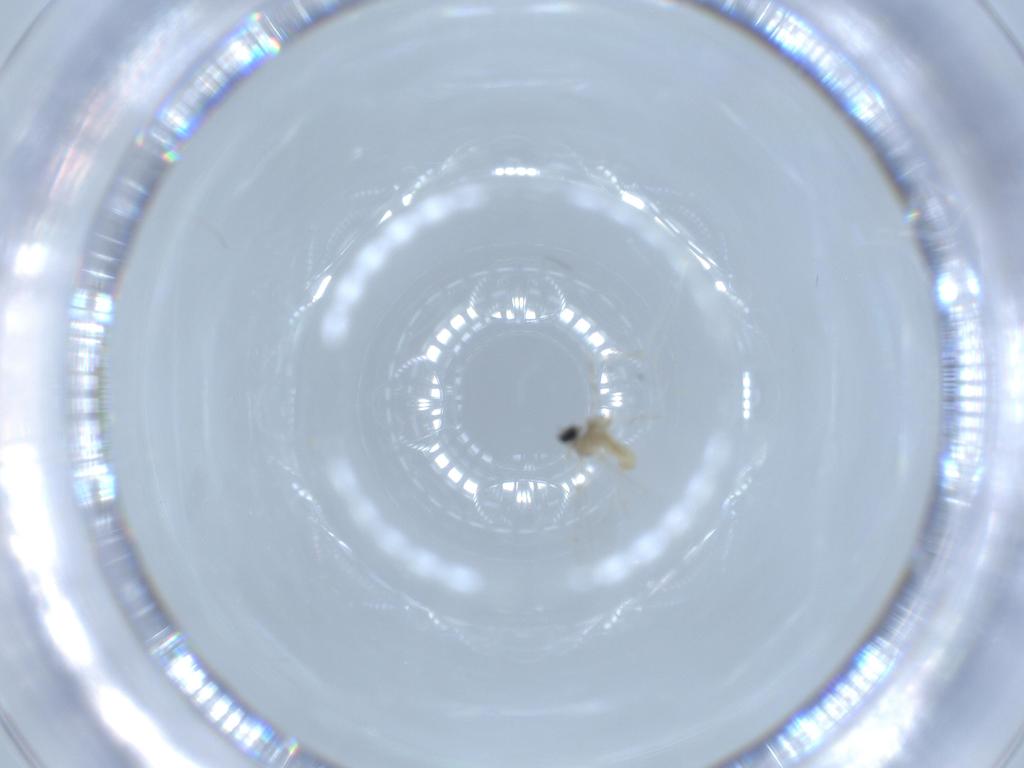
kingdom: Animalia
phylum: Arthropoda
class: Insecta
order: Diptera
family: Cecidomyiidae
